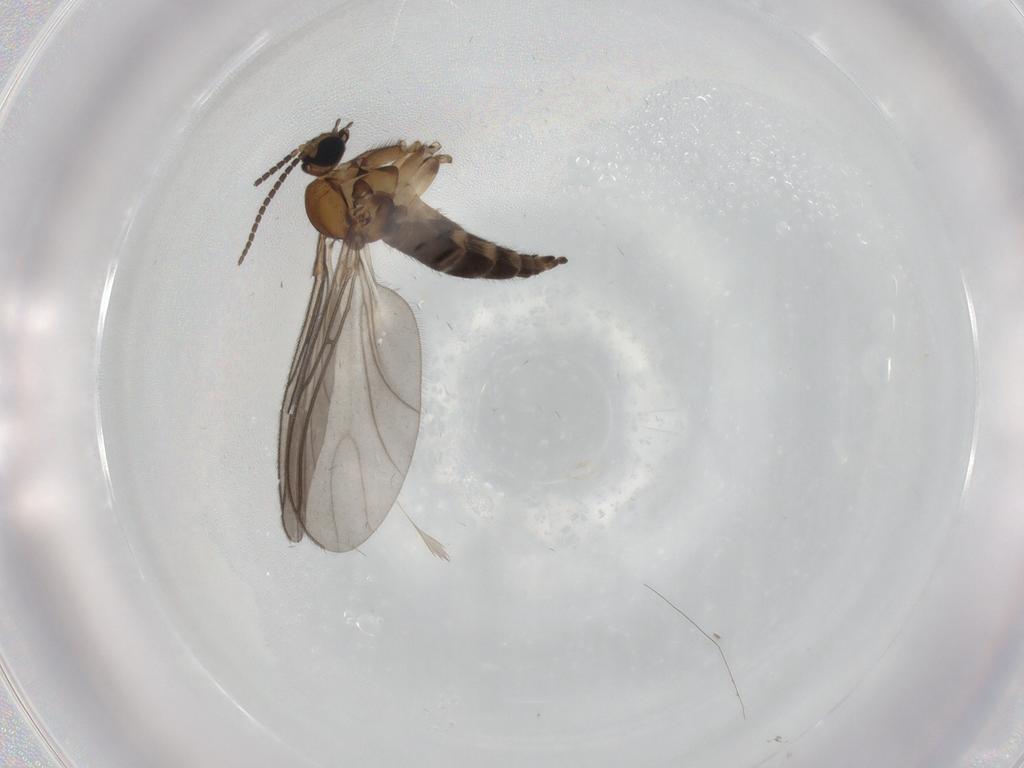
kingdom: Animalia
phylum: Arthropoda
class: Insecta
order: Diptera
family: Sciaridae
